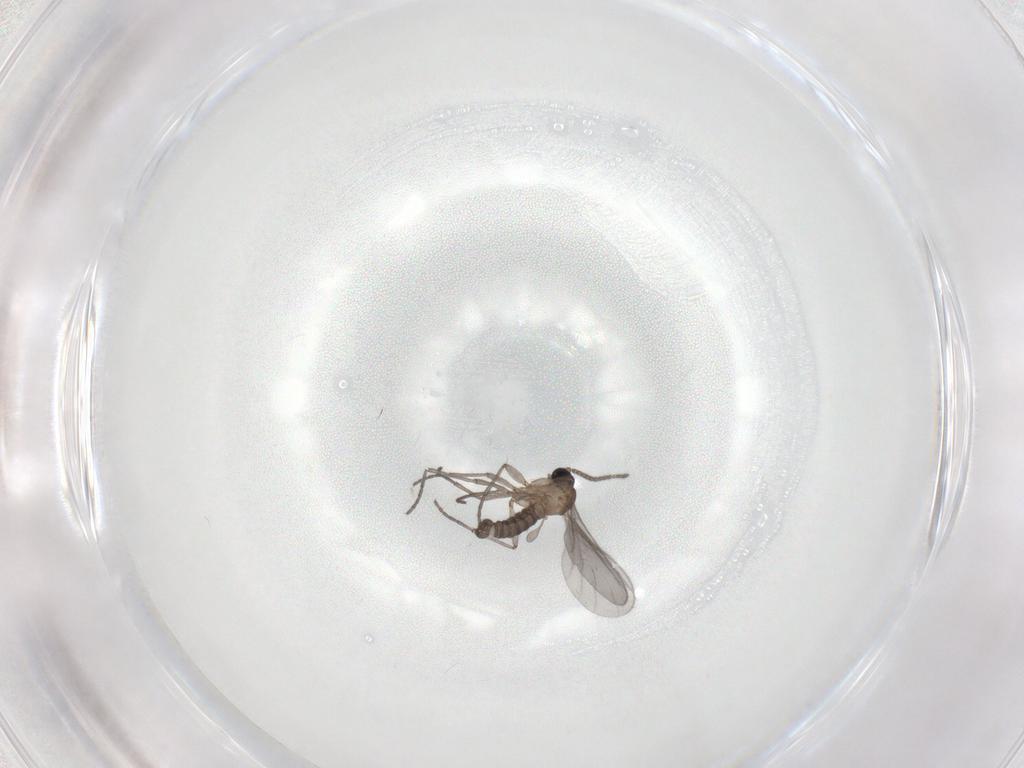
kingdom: Animalia
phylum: Arthropoda
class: Insecta
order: Diptera
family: Sciaridae
